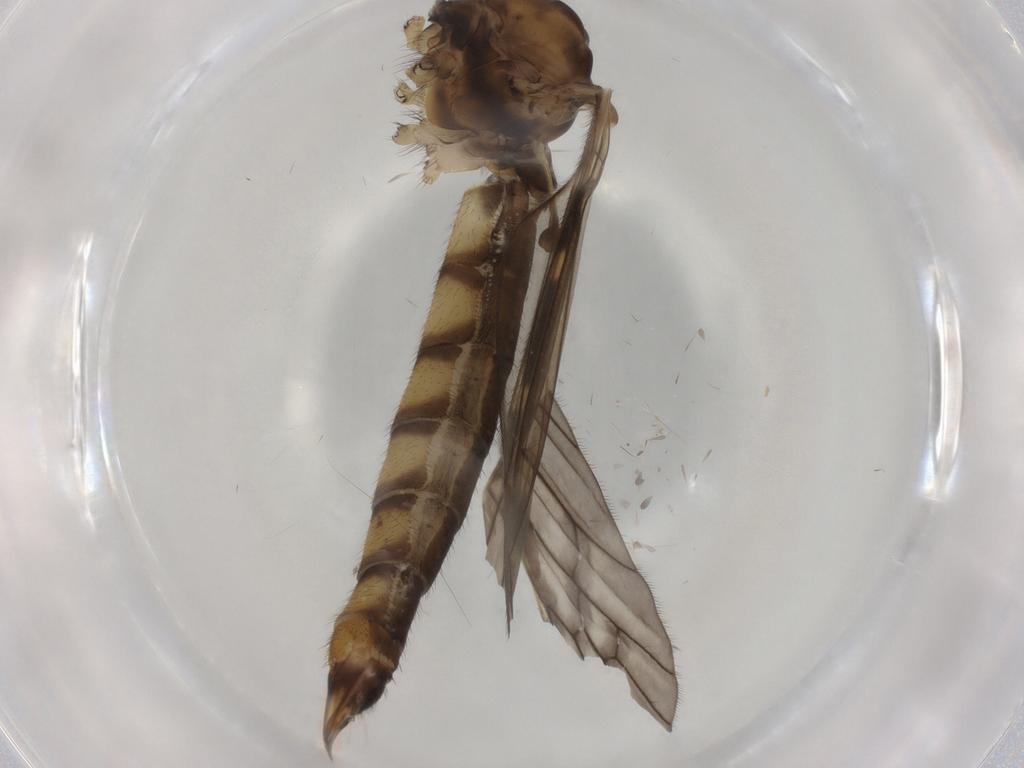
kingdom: Animalia
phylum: Arthropoda
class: Insecta
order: Diptera
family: Limoniidae
